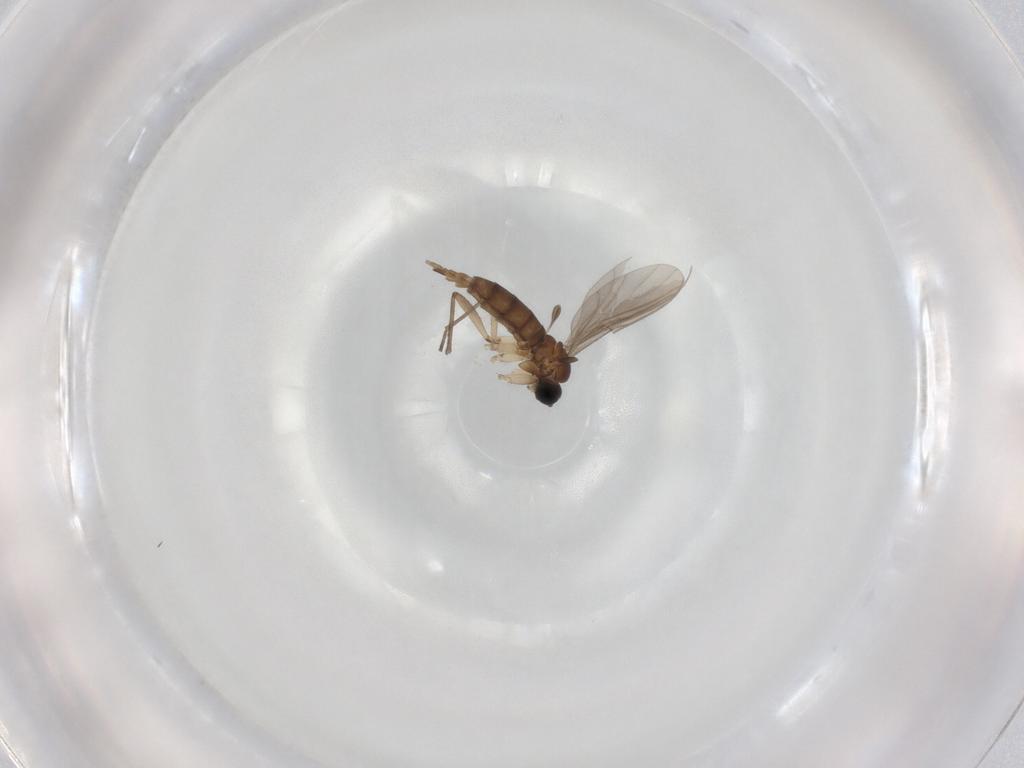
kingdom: Animalia
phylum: Arthropoda
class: Insecta
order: Diptera
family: Sciaridae
